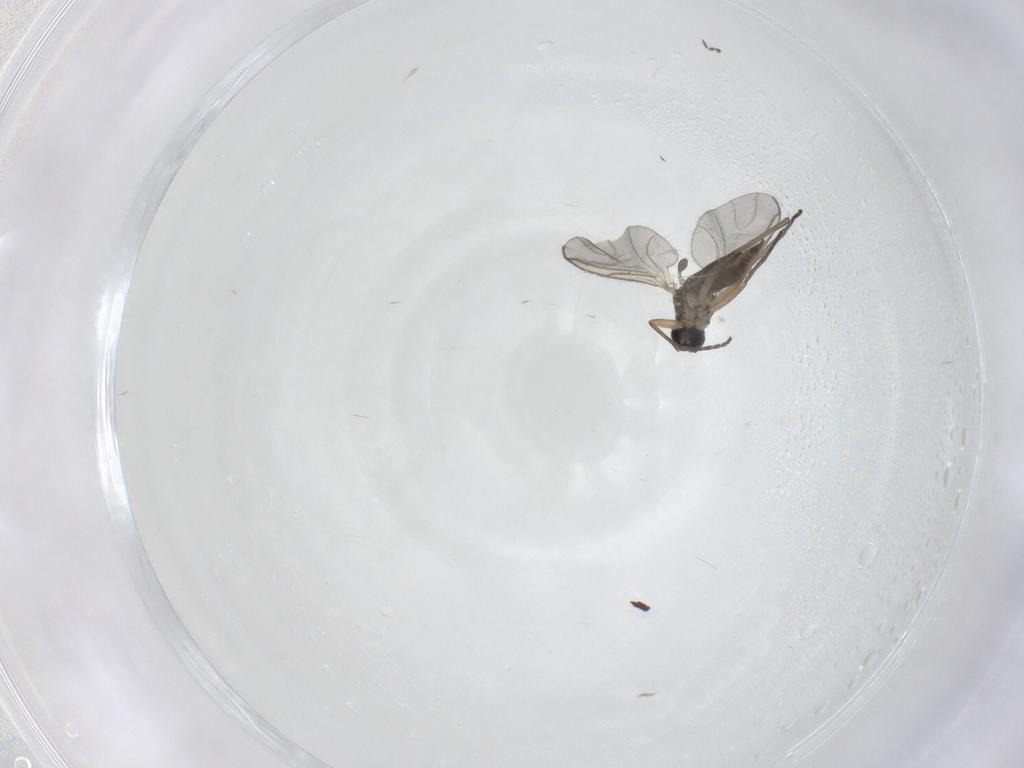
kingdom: Animalia
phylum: Arthropoda
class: Insecta
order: Diptera
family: Sciaridae
